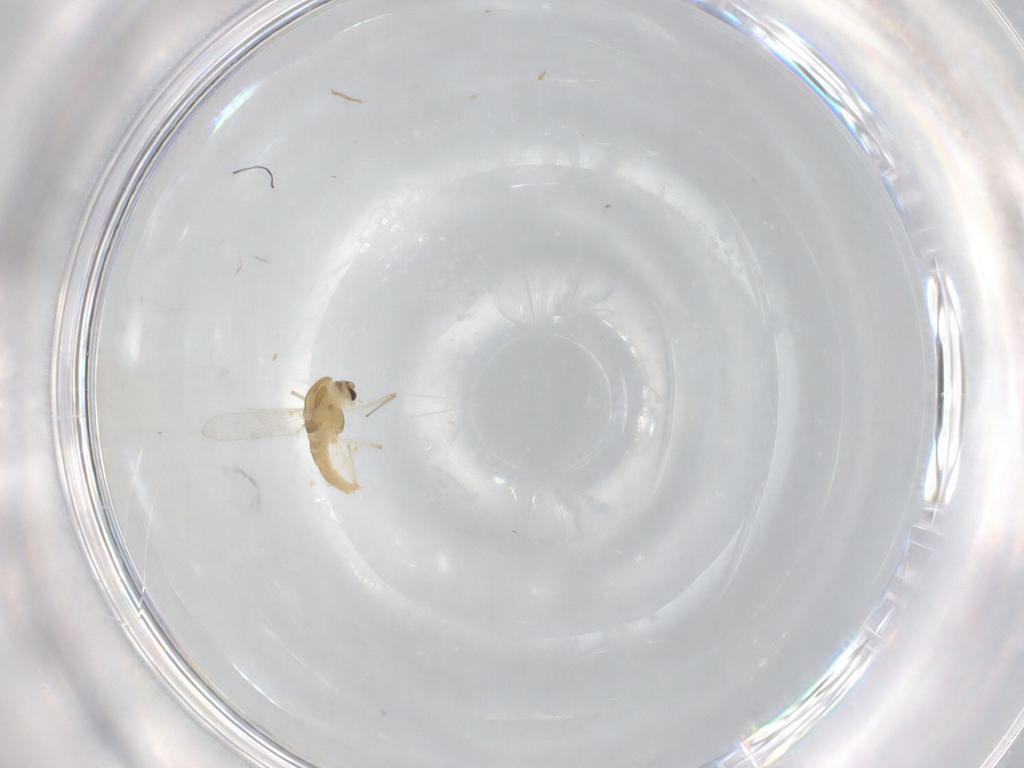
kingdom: Animalia
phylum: Arthropoda
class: Insecta
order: Diptera
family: Chironomidae
